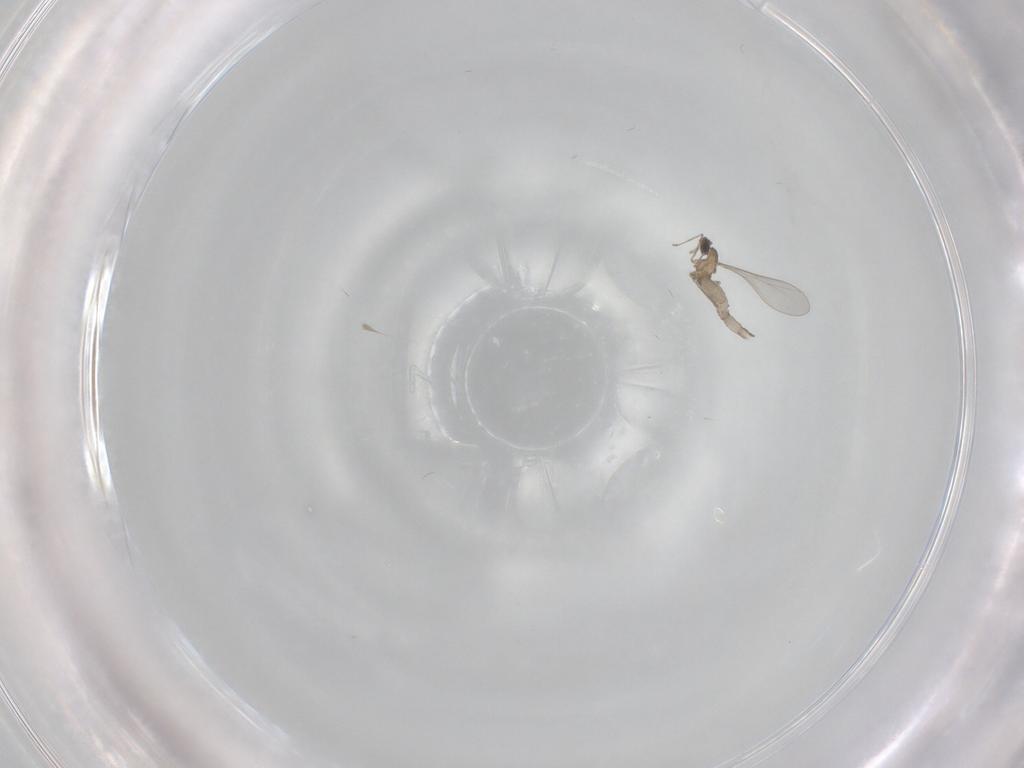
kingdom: Animalia
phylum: Arthropoda
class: Insecta
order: Diptera
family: Cecidomyiidae
